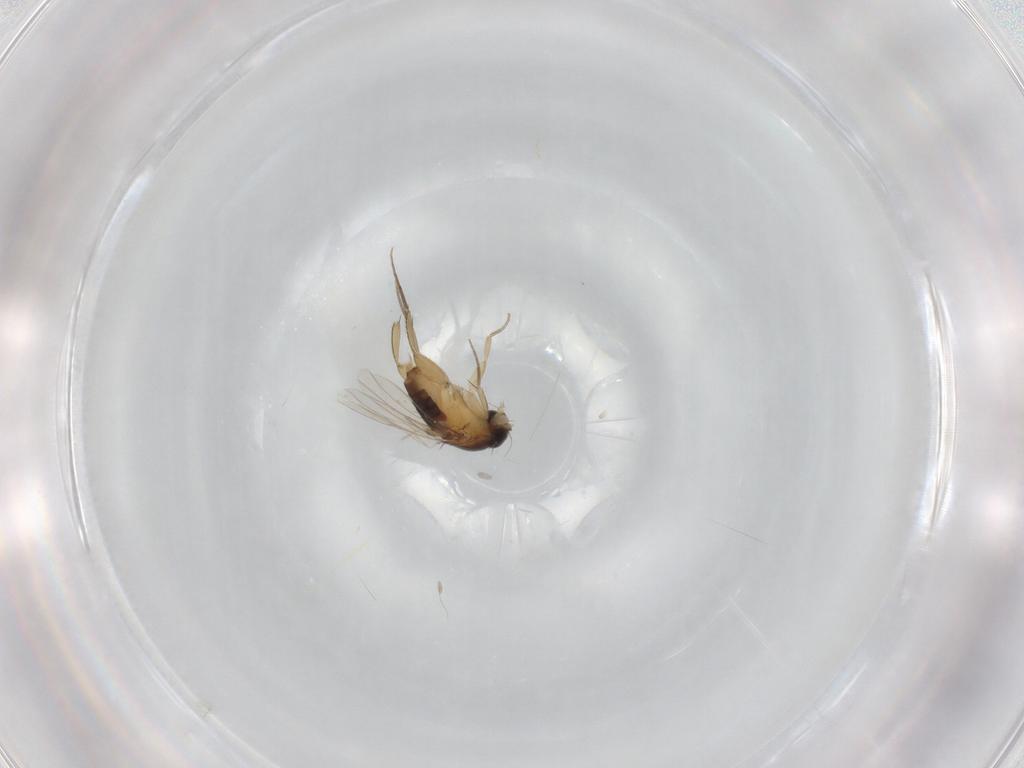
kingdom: Animalia
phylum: Arthropoda
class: Insecta
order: Diptera
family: Phoridae
